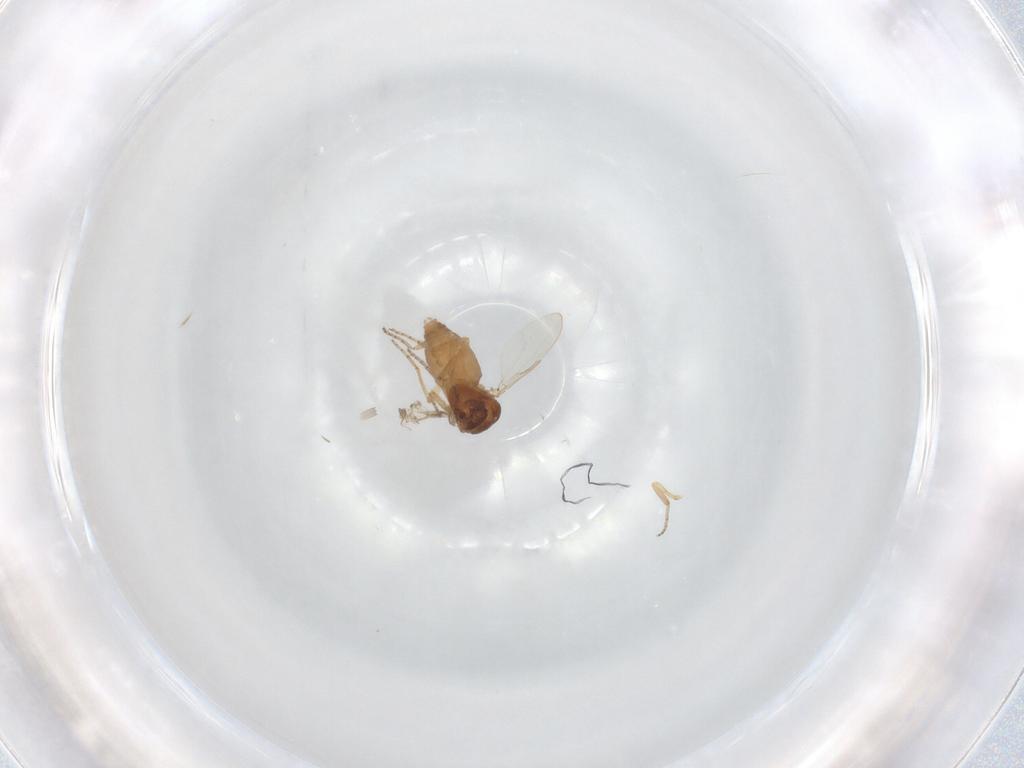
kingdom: Animalia
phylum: Arthropoda
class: Insecta
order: Diptera
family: Ceratopogonidae
